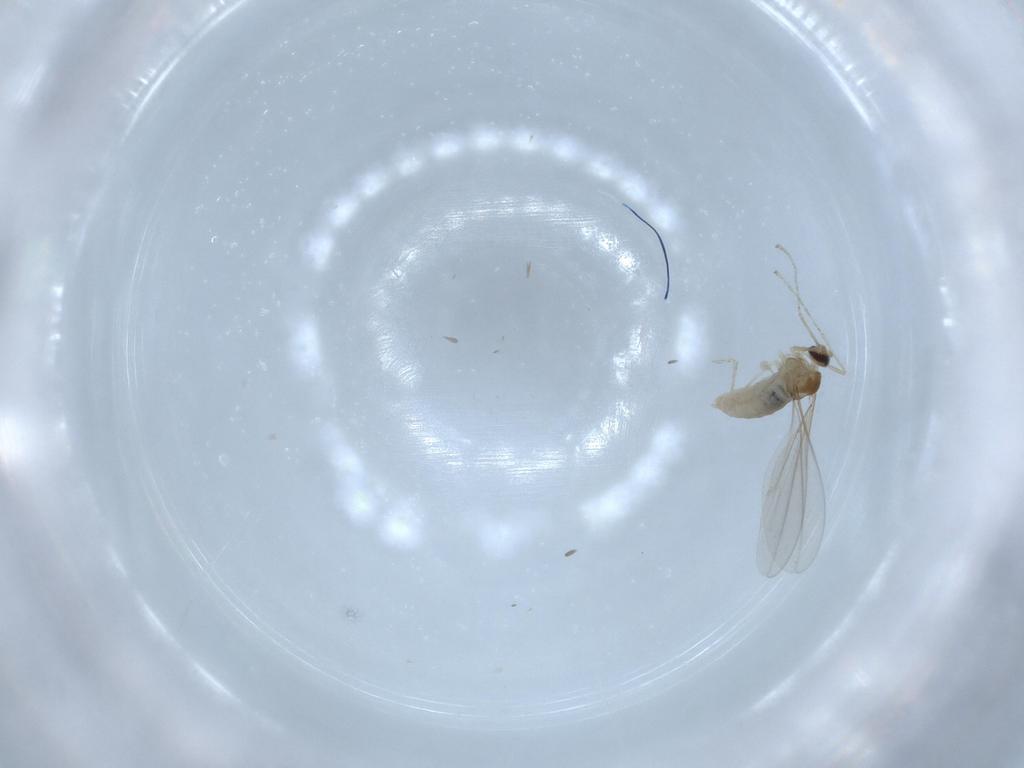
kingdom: Animalia
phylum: Arthropoda
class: Insecta
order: Diptera
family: Cecidomyiidae
